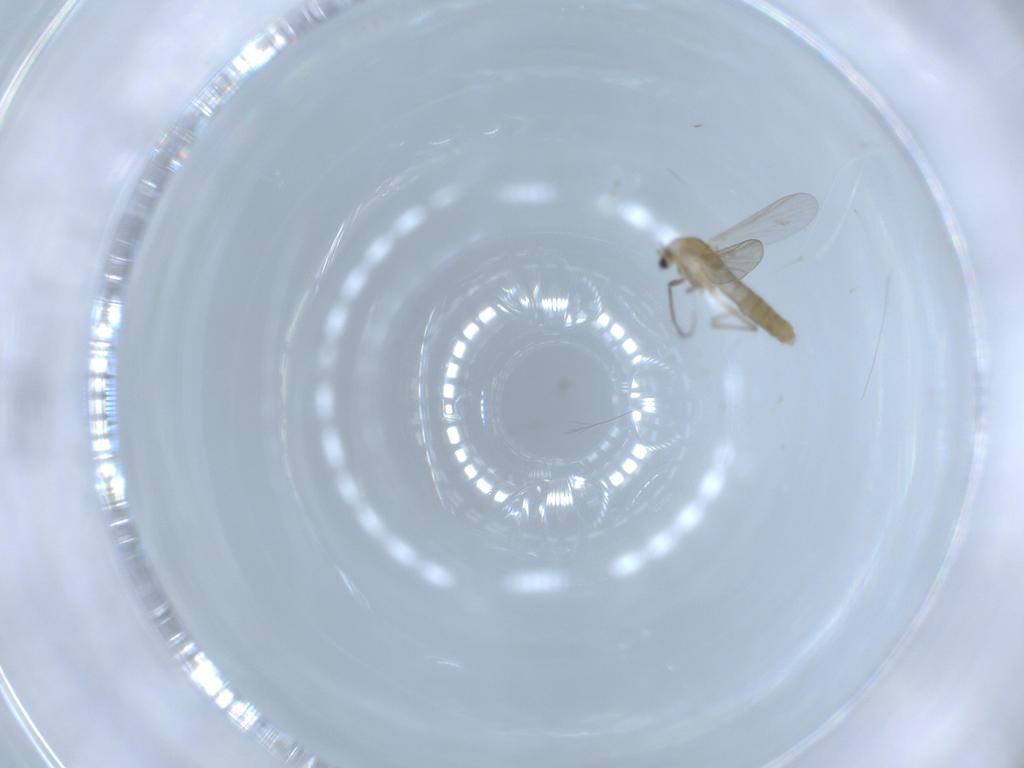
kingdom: Animalia
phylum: Arthropoda
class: Insecta
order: Diptera
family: Chironomidae
